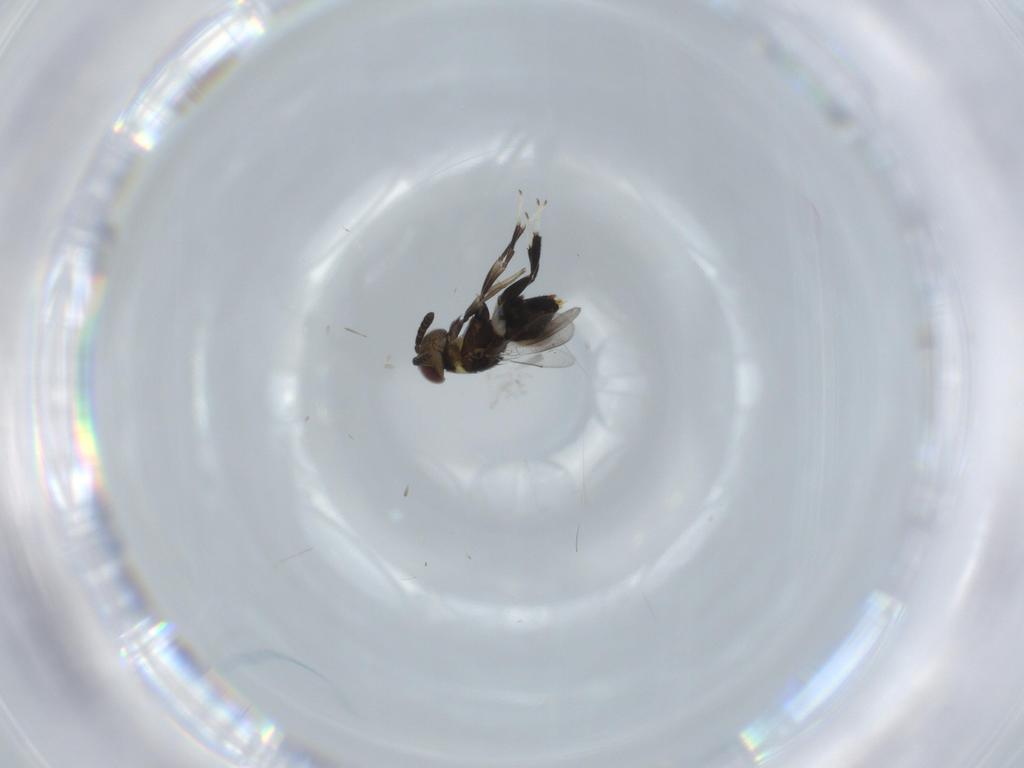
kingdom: Animalia
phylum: Arthropoda
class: Insecta
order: Hymenoptera
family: Aphelinidae
